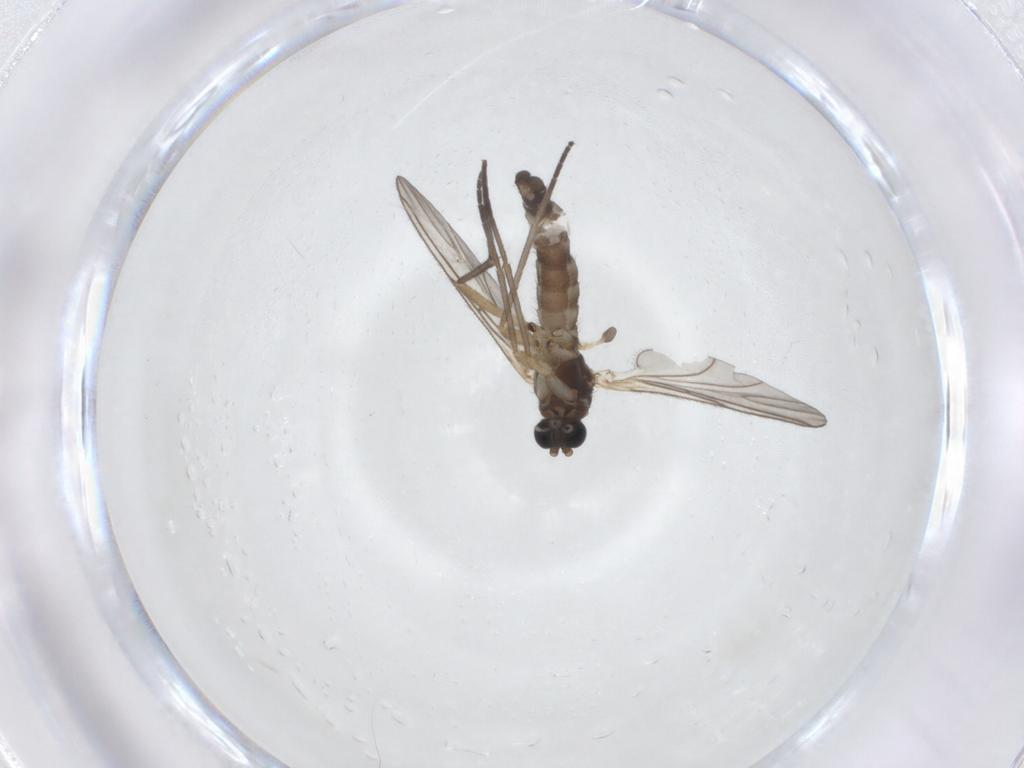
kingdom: Animalia
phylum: Arthropoda
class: Insecta
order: Diptera
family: Sciaridae
